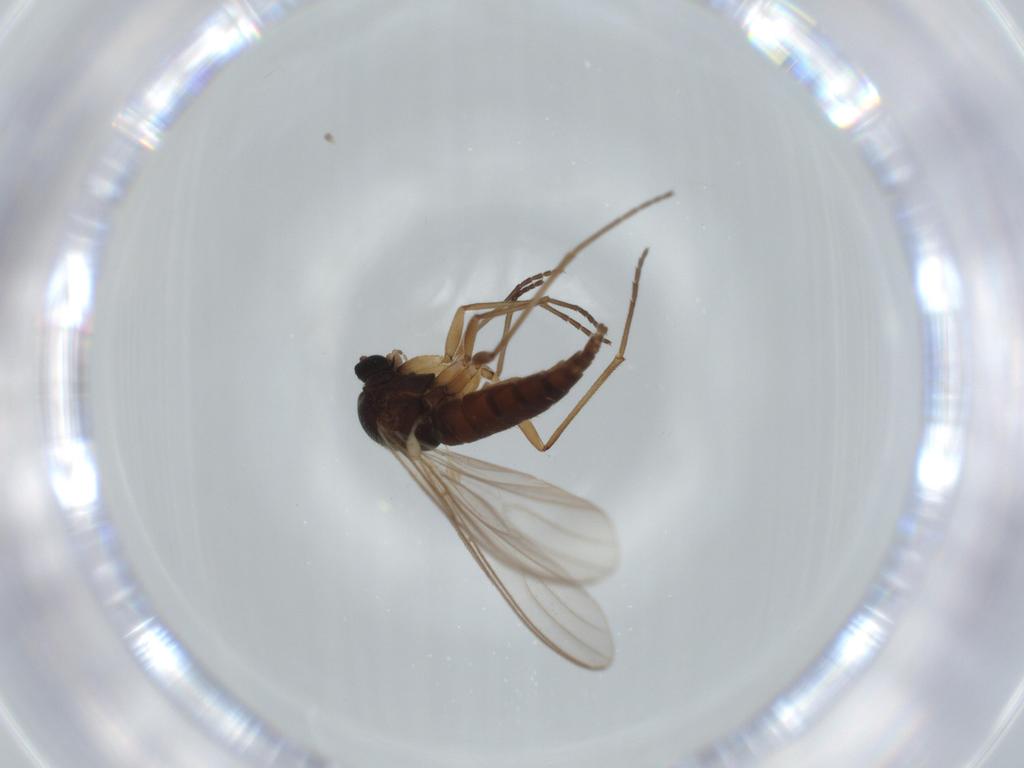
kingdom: Animalia
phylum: Arthropoda
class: Insecta
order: Diptera
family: Sciaridae
